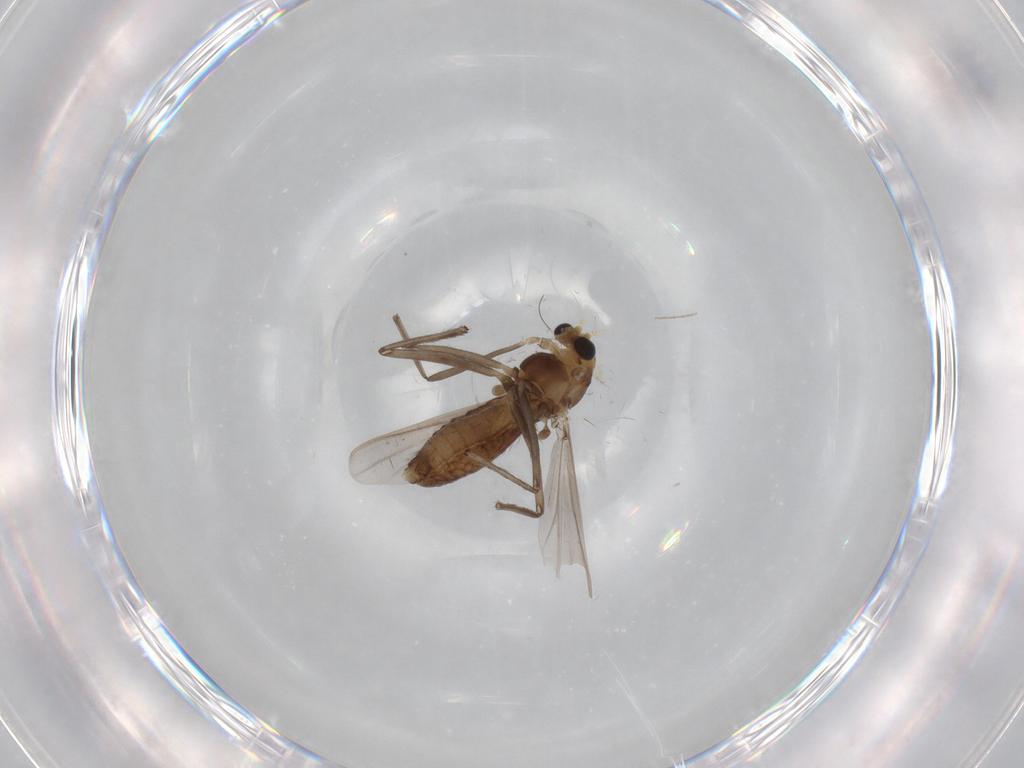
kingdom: Animalia
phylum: Arthropoda
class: Insecta
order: Diptera
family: Chironomidae
